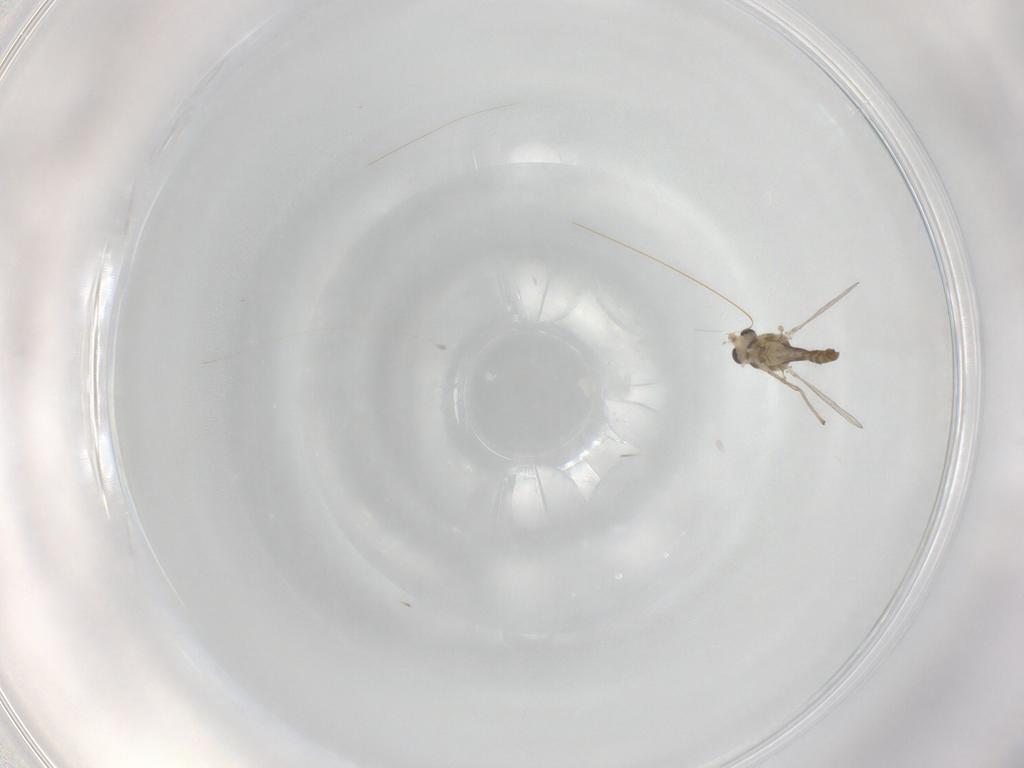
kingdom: Animalia
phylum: Arthropoda
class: Insecta
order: Diptera
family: Chironomidae
